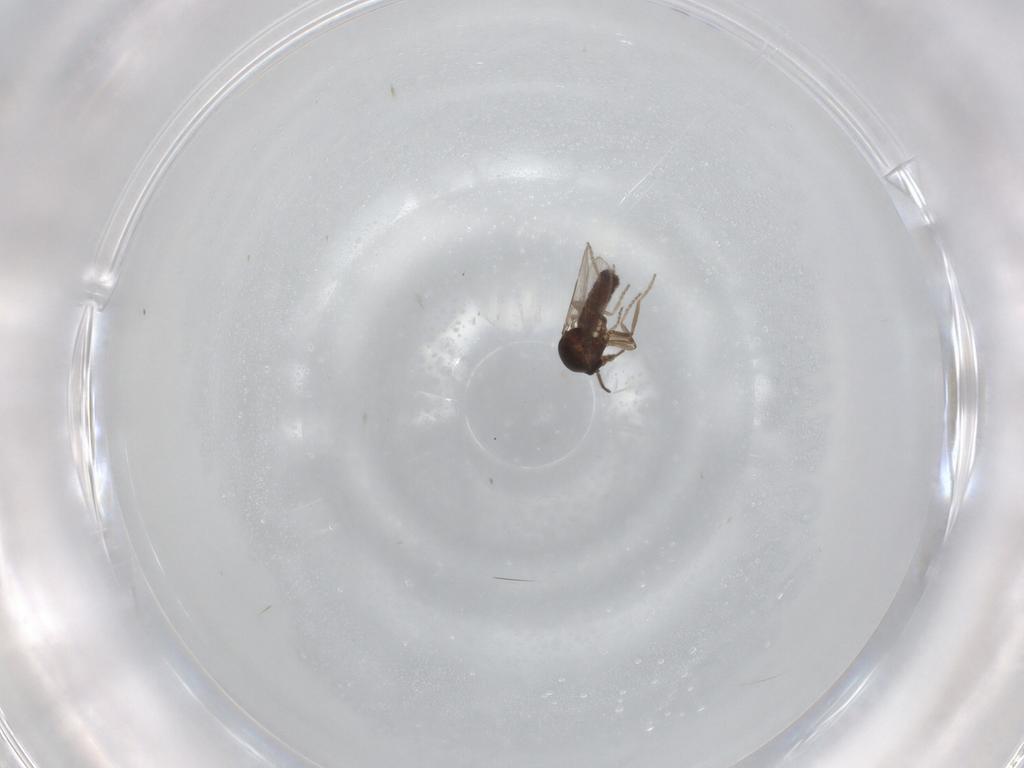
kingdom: Animalia
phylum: Arthropoda
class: Insecta
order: Diptera
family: Ceratopogonidae
